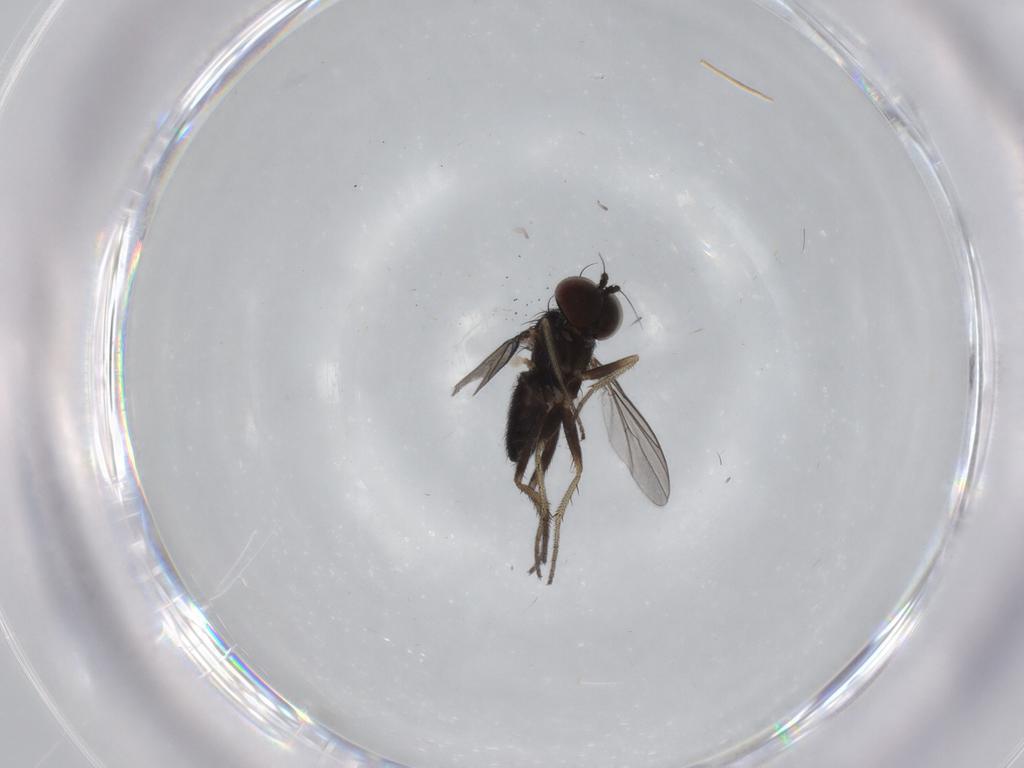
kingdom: Animalia
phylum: Arthropoda
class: Insecta
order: Diptera
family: Dolichopodidae
